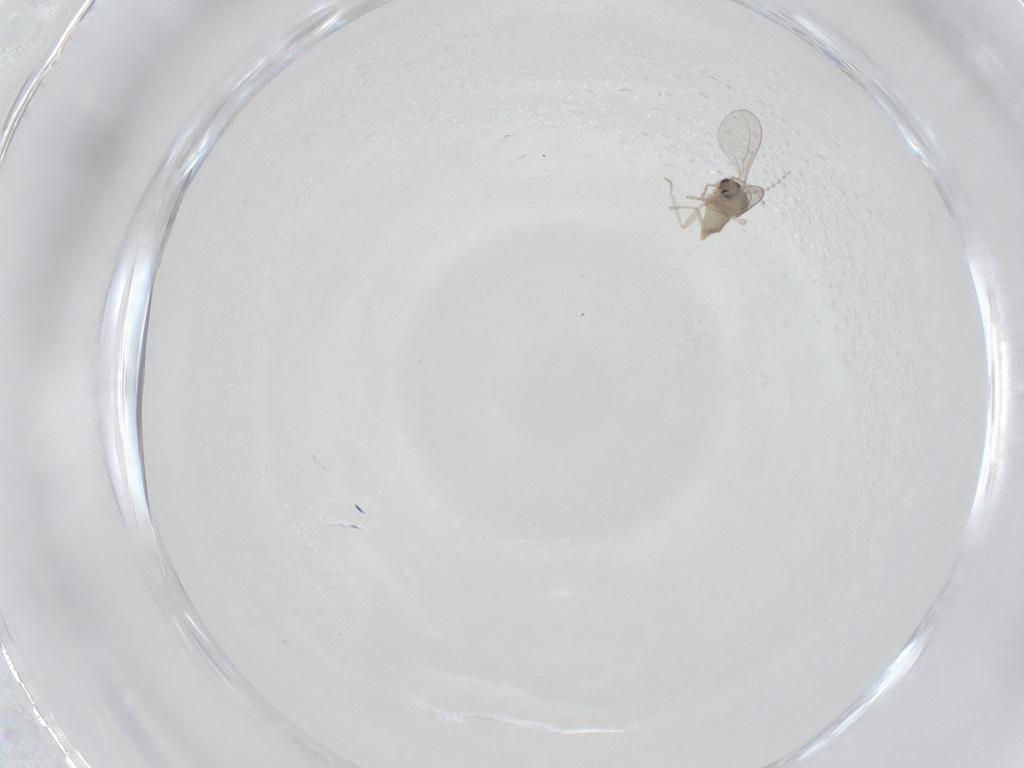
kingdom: Animalia
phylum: Arthropoda
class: Insecta
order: Diptera
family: Cecidomyiidae
